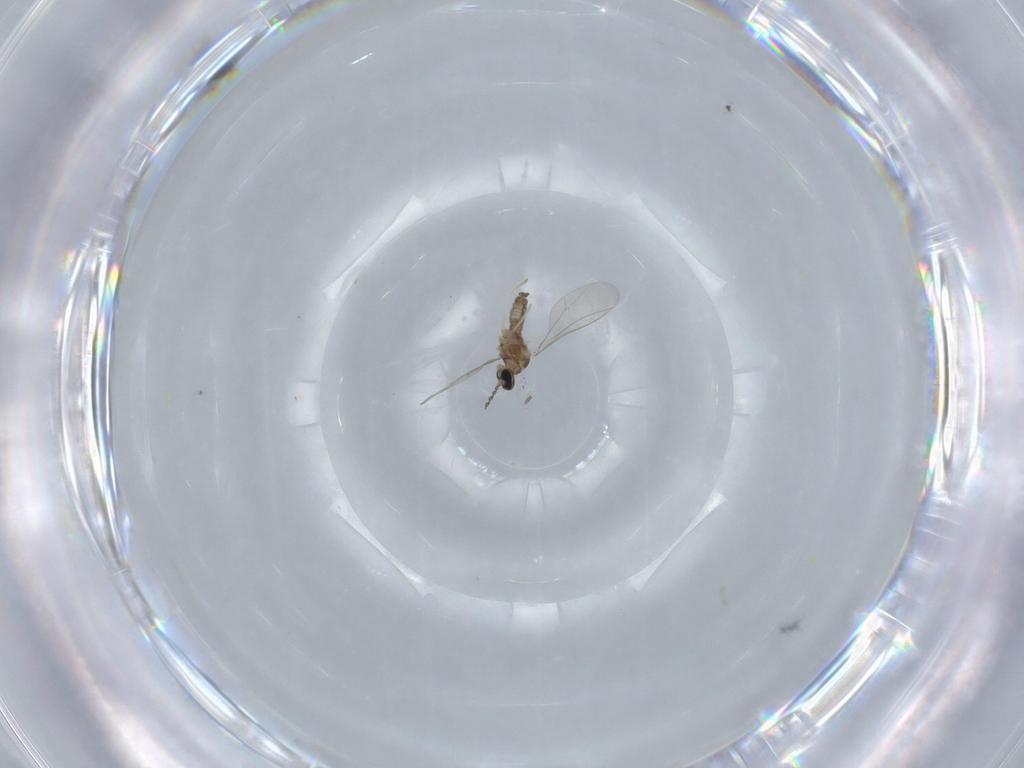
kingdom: Animalia
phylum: Arthropoda
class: Insecta
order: Diptera
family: Cecidomyiidae
